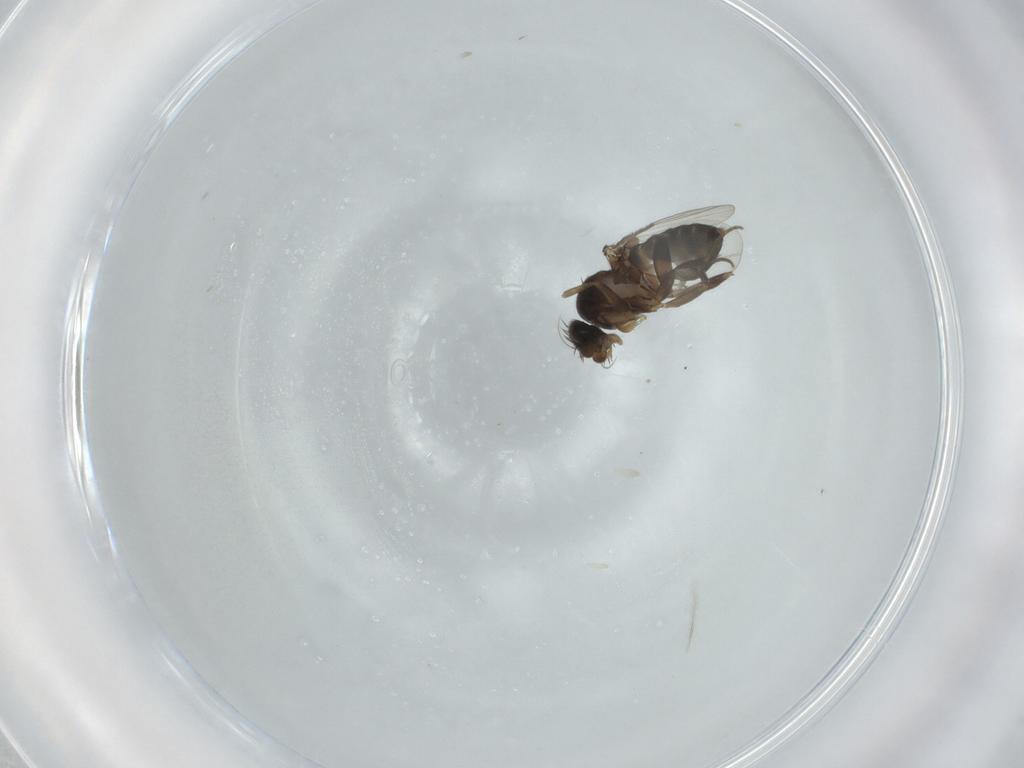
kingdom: Animalia
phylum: Arthropoda
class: Insecta
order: Diptera
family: Phoridae
